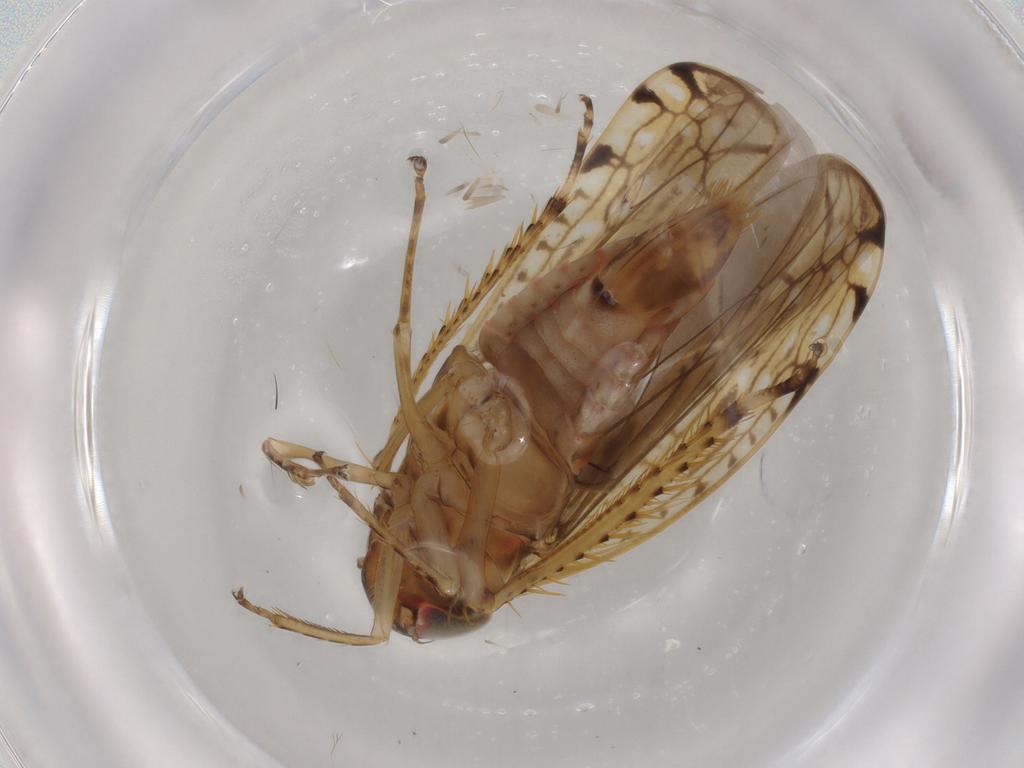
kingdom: Animalia
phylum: Arthropoda
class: Insecta
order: Hemiptera
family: Cicadellidae
